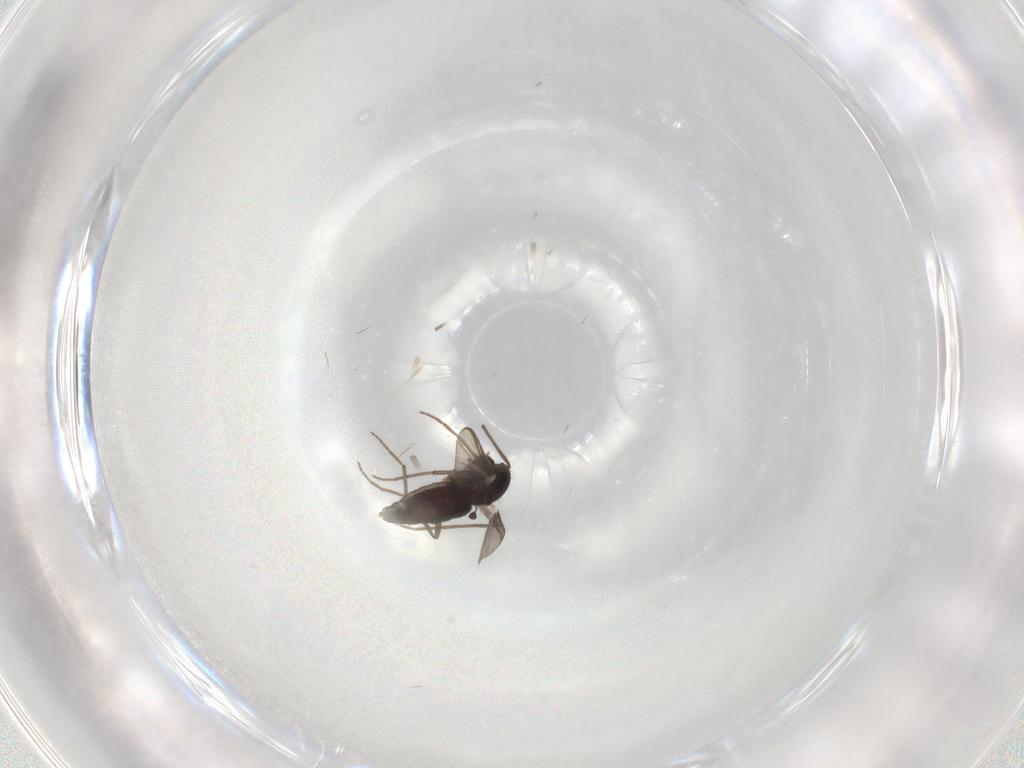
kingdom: Animalia
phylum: Arthropoda
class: Insecta
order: Diptera
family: Chironomidae
